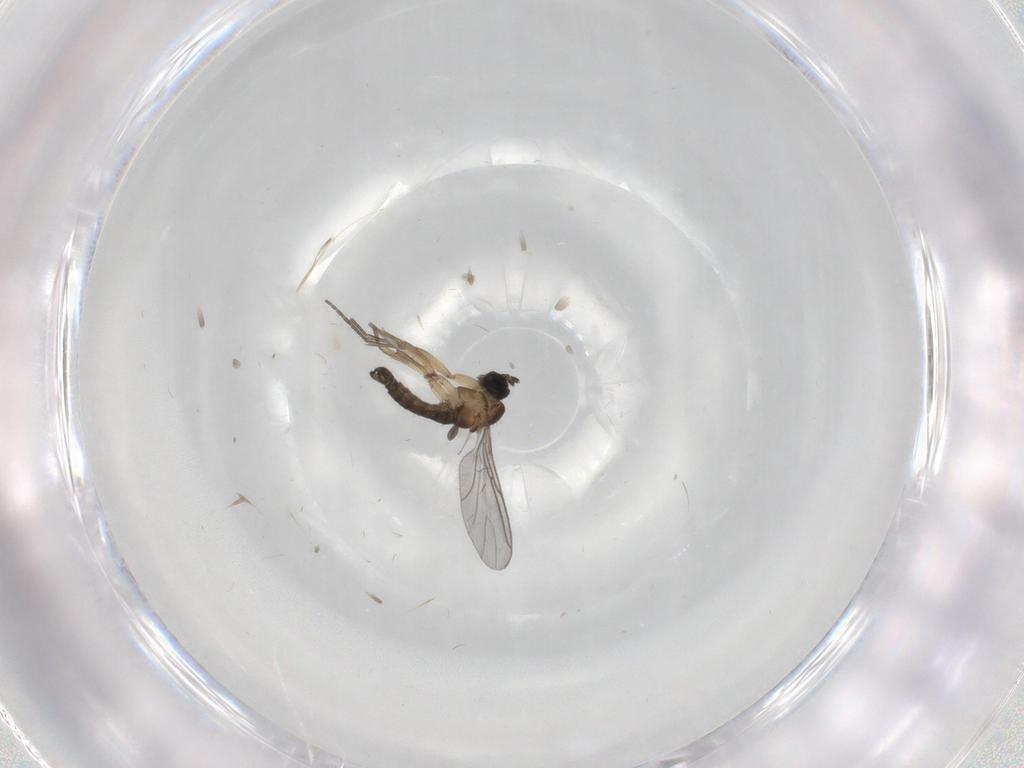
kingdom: Animalia
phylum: Arthropoda
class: Insecta
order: Diptera
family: Sciaridae
